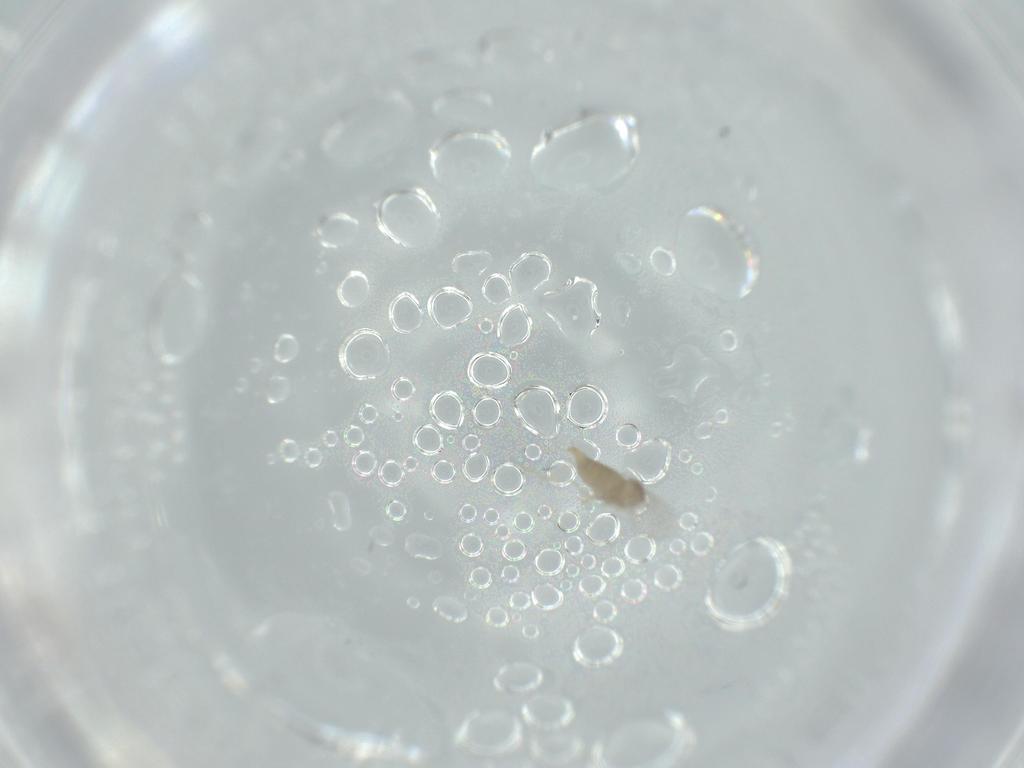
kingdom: Animalia
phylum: Arthropoda
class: Insecta
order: Diptera
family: Cecidomyiidae
